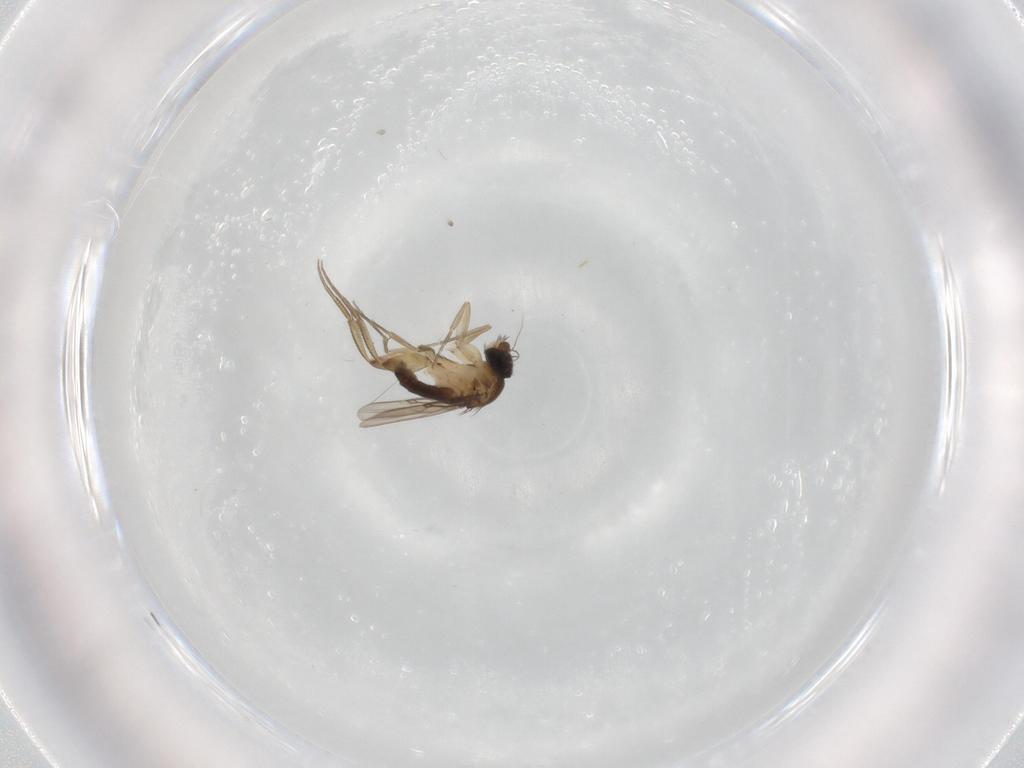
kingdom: Animalia
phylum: Arthropoda
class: Insecta
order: Diptera
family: Phoridae
